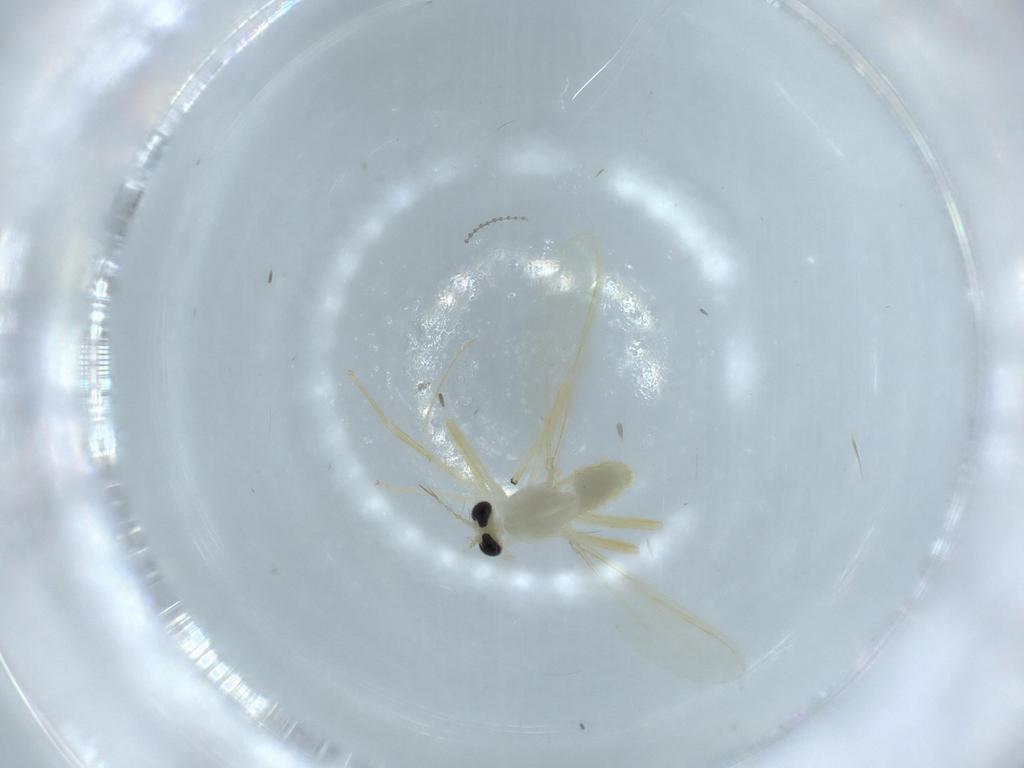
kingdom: Animalia
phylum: Arthropoda
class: Insecta
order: Diptera
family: Chironomidae
